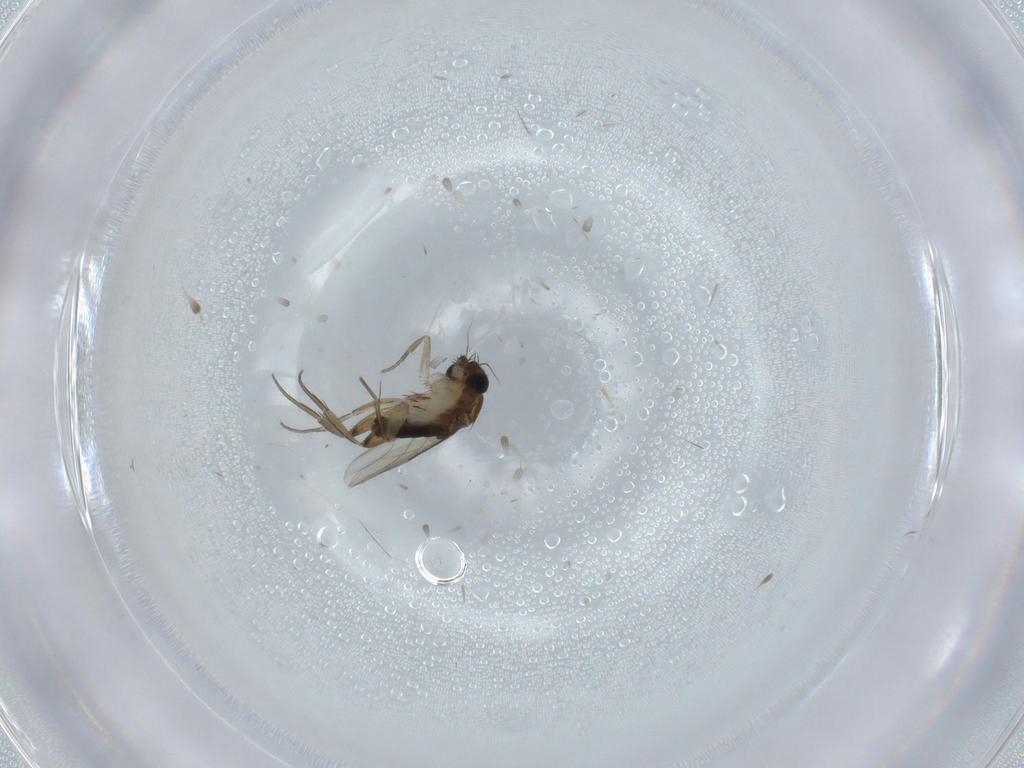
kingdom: Animalia
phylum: Arthropoda
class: Insecta
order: Diptera
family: Phoridae
